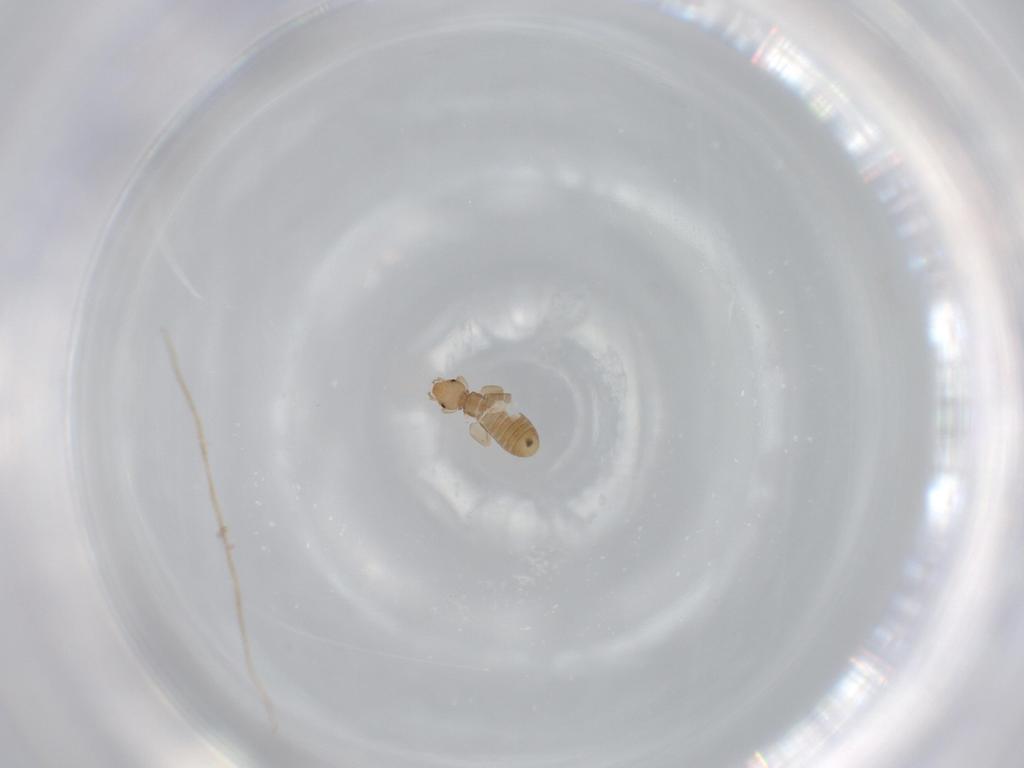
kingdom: Animalia
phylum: Arthropoda
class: Insecta
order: Psocodea
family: Liposcelididae
